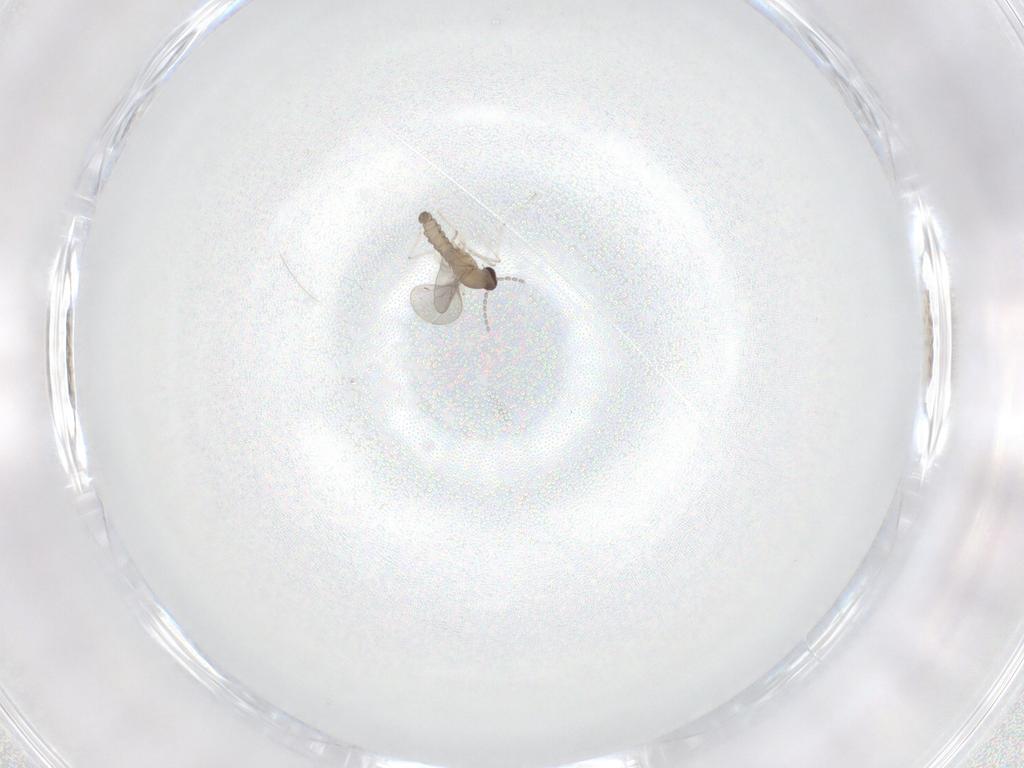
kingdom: Animalia
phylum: Arthropoda
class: Insecta
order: Diptera
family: Cecidomyiidae
